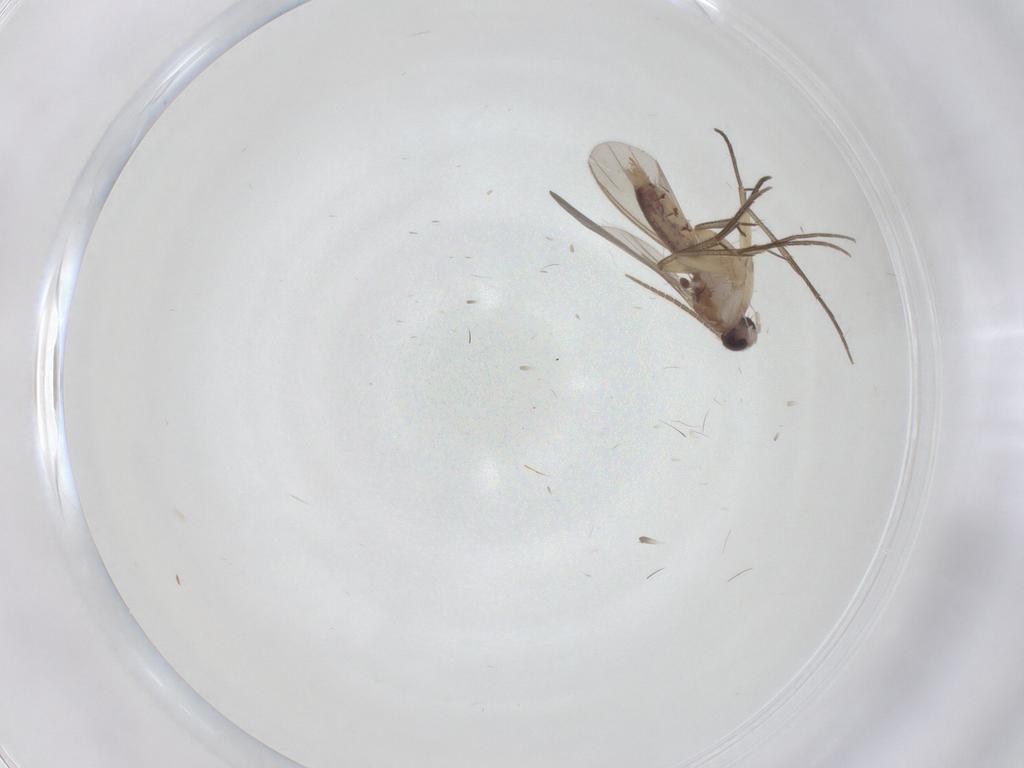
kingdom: Animalia
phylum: Arthropoda
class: Insecta
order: Diptera
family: Mycetophilidae
